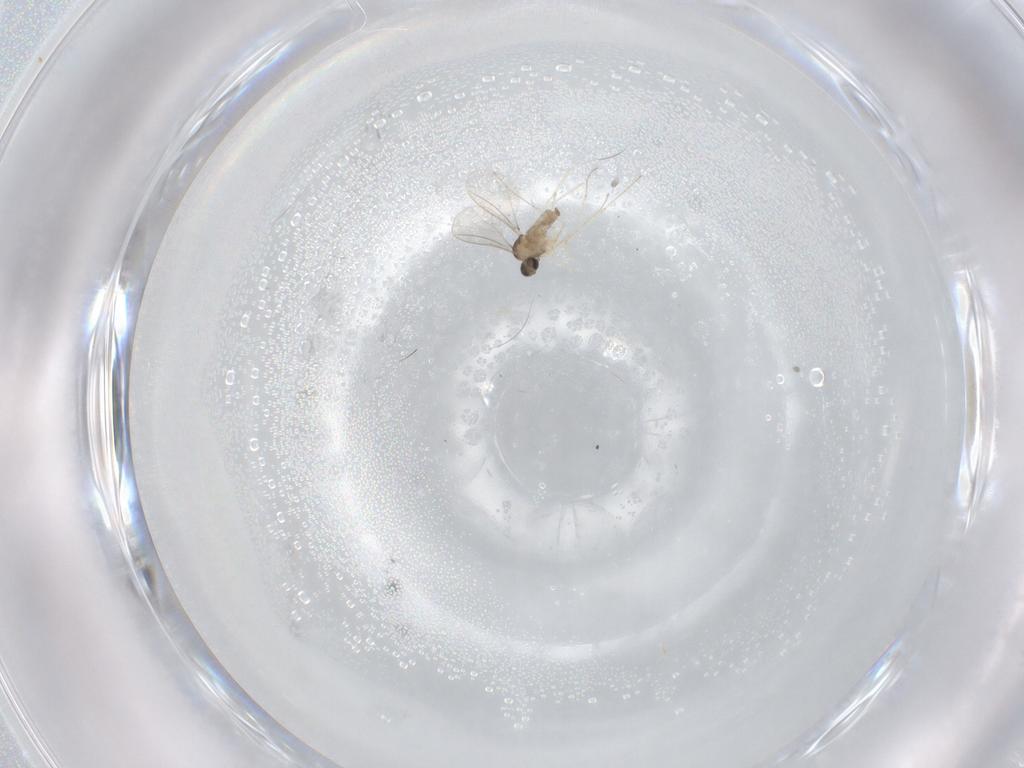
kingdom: Animalia
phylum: Arthropoda
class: Insecta
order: Diptera
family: Cecidomyiidae
